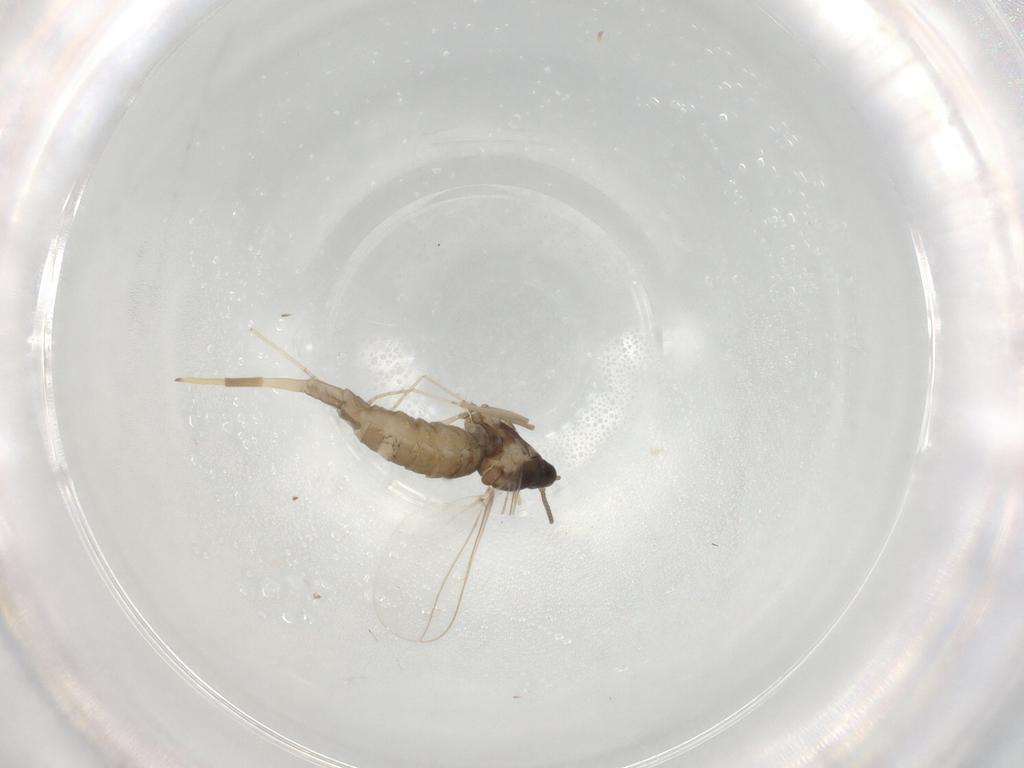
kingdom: Animalia
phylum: Arthropoda
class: Insecta
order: Diptera
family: Cecidomyiidae
